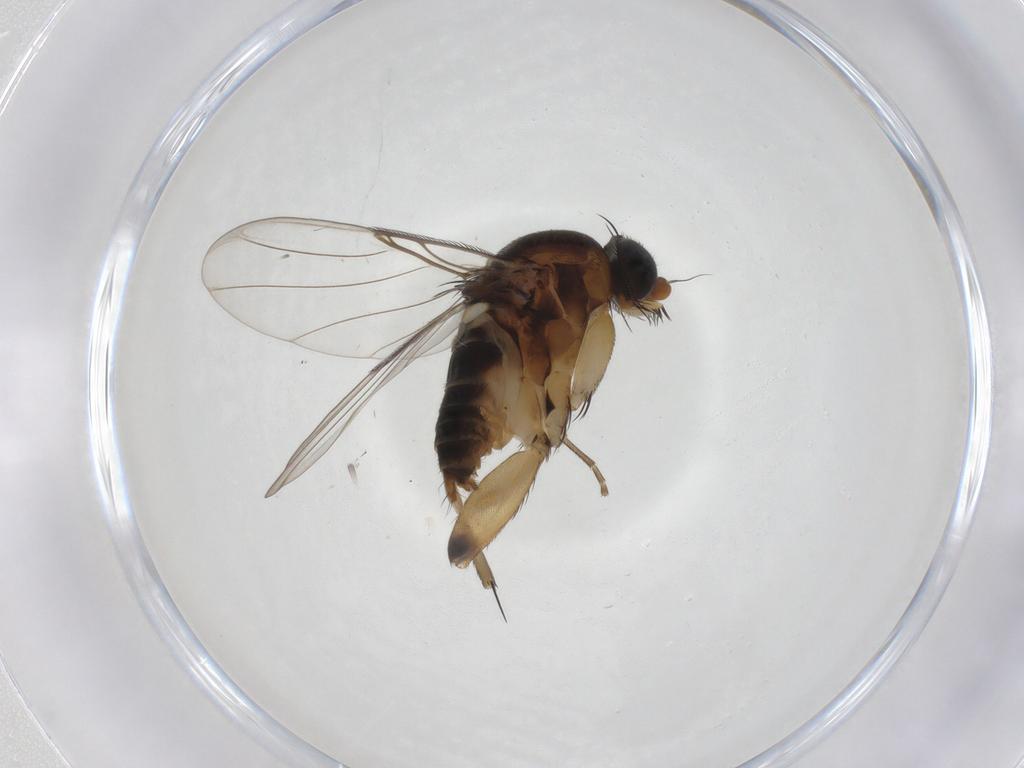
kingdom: Animalia
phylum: Arthropoda
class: Insecta
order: Diptera
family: Phoridae
